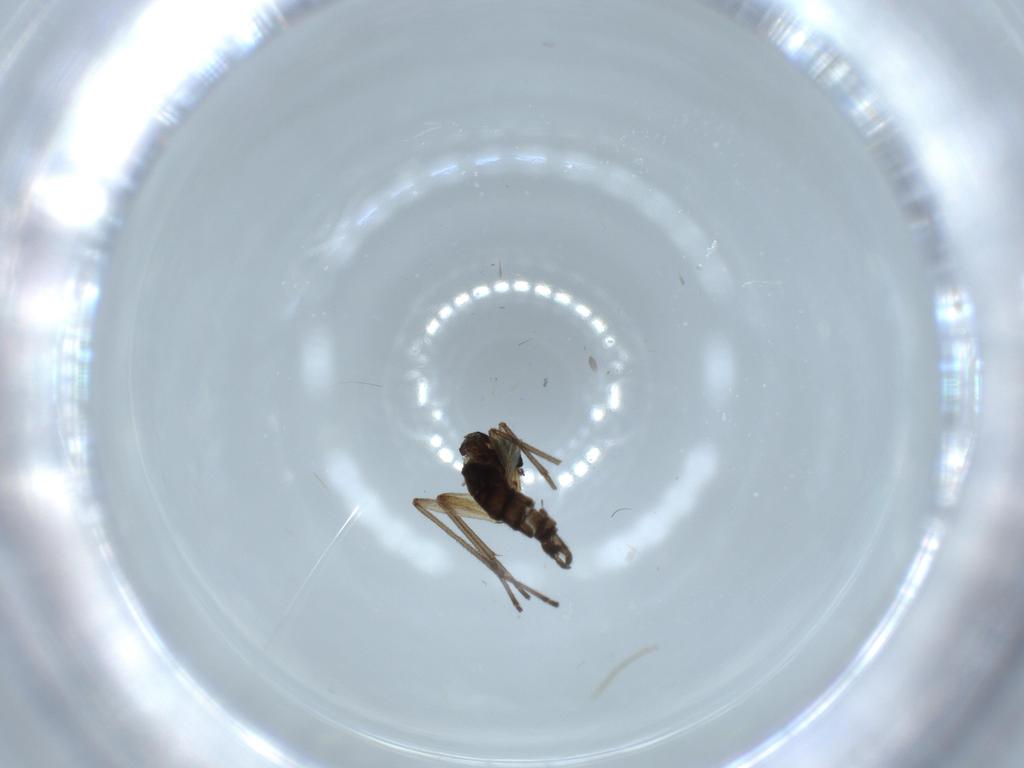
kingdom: Animalia
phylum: Arthropoda
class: Insecta
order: Diptera
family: Sciaridae
